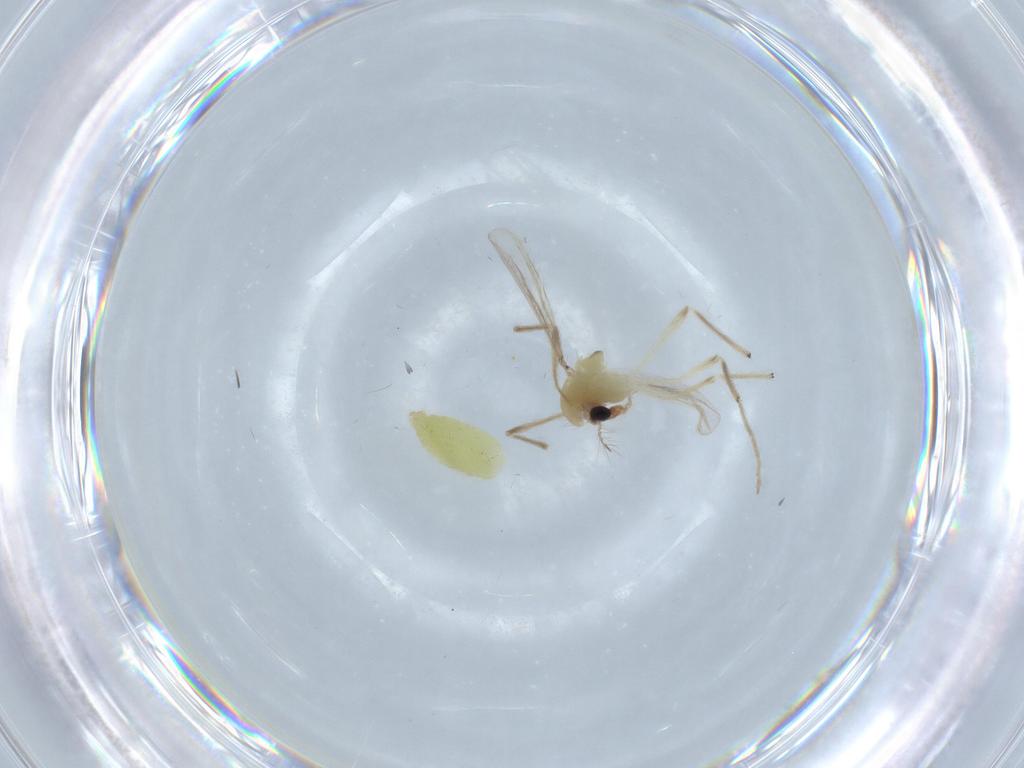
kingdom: Animalia
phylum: Arthropoda
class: Insecta
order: Diptera
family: Chironomidae
